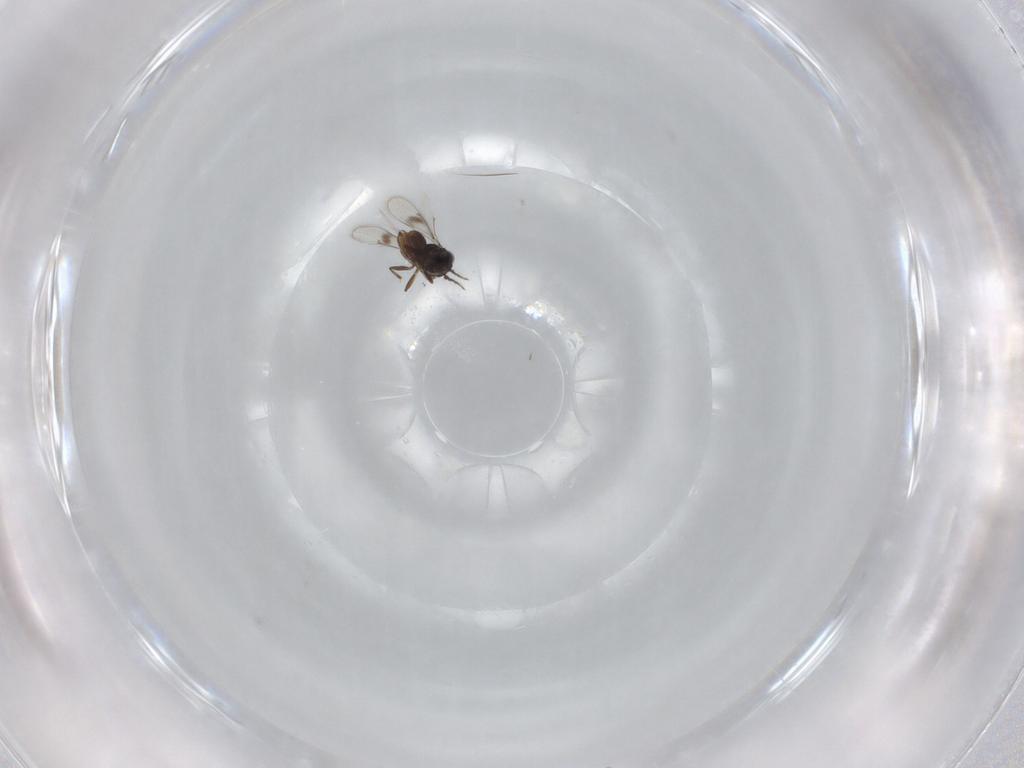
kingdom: Animalia
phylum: Arthropoda
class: Insecta
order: Hymenoptera
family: Eulophidae
